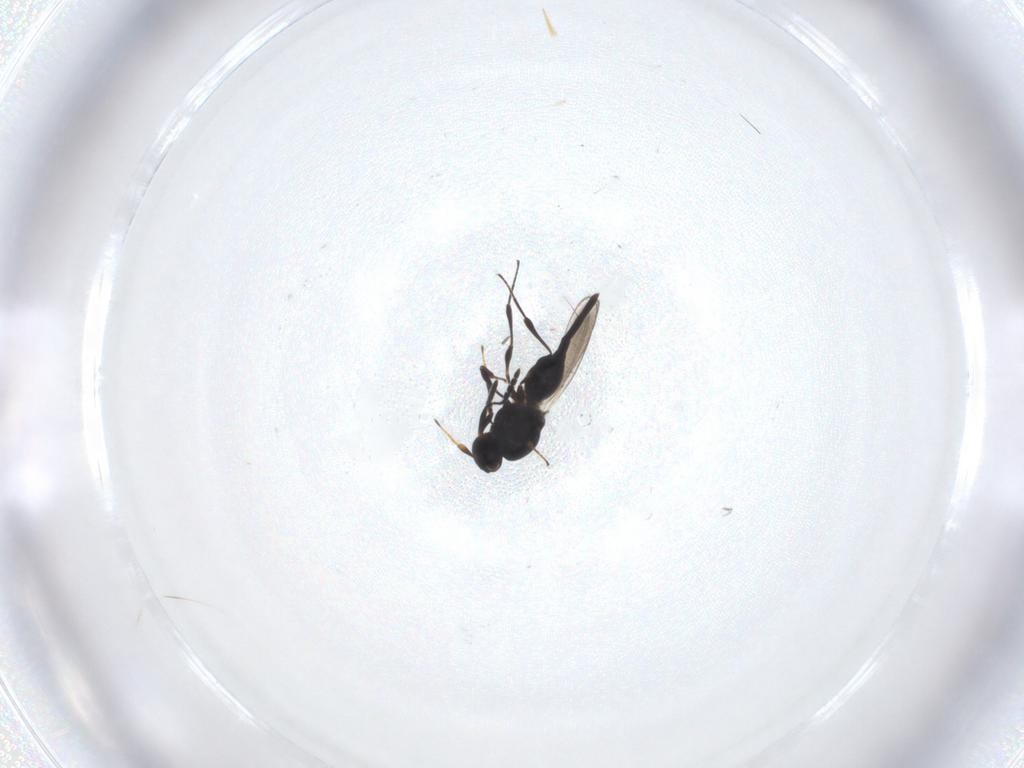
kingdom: Animalia
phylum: Arthropoda
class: Insecta
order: Hymenoptera
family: Platygastridae
